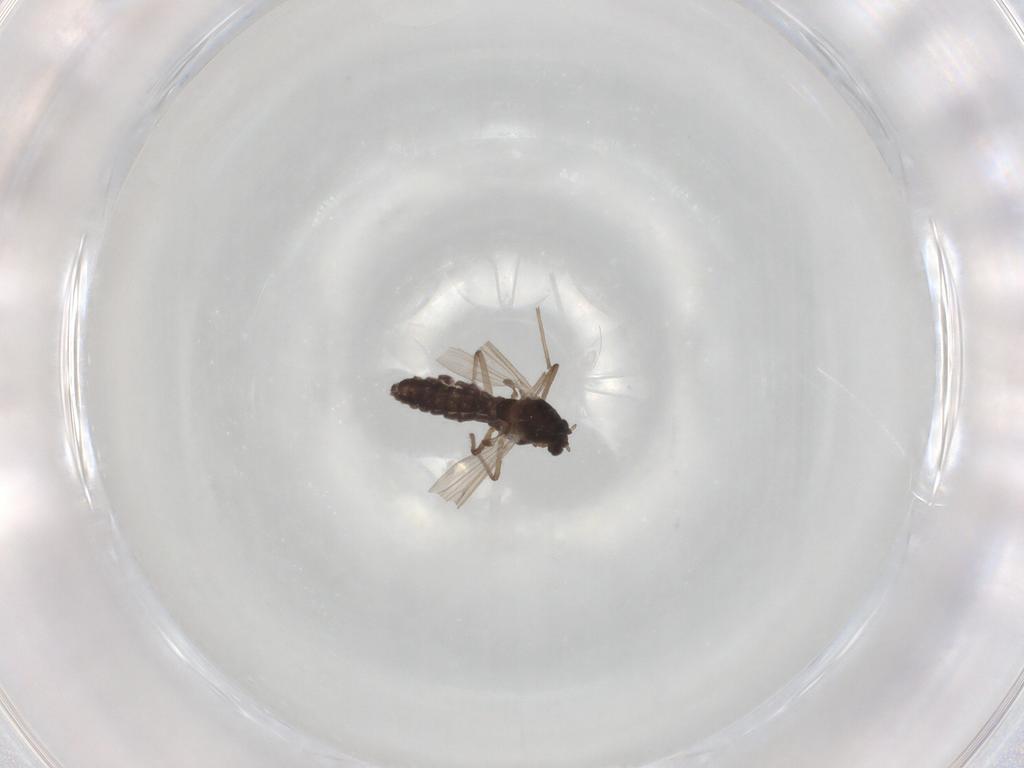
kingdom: Animalia
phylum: Arthropoda
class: Insecta
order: Diptera
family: Chironomidae
